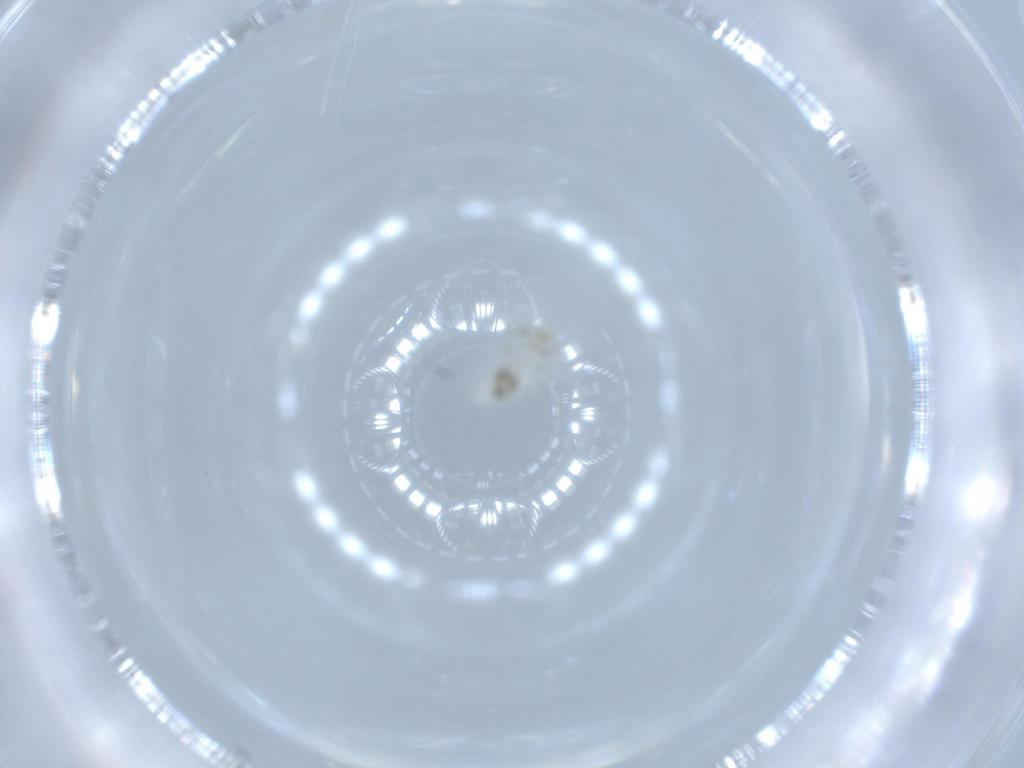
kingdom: Animalia
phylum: Arthropoda
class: Insecta
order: Psocodea
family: Caeciliusidae
